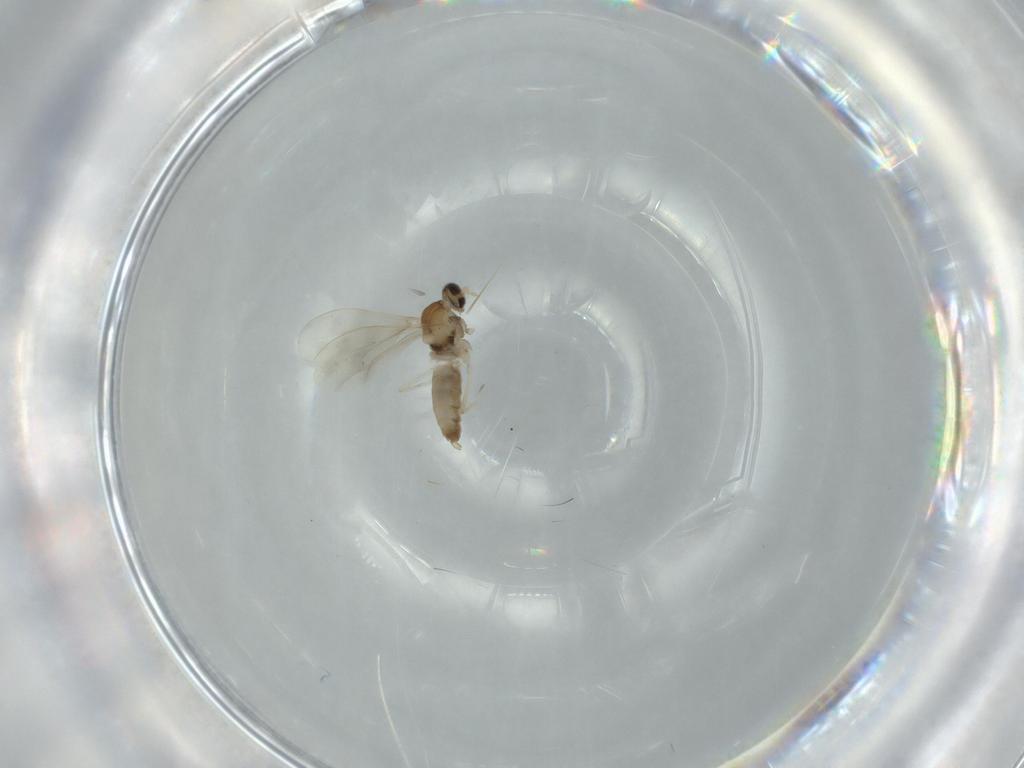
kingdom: Animalia
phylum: Arthropoda
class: Insecta
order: Diptera
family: Cecidomyiidae
